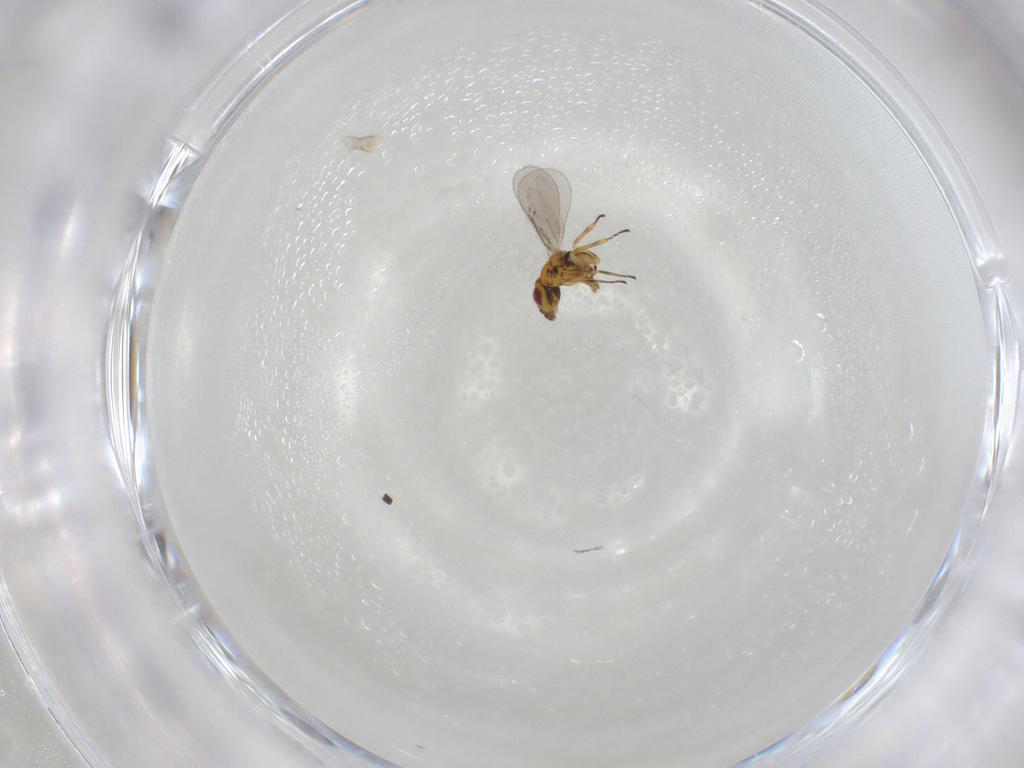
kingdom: Animalia
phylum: Arthropoda
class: Insecta
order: Hymenoptera
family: Eulophidae
